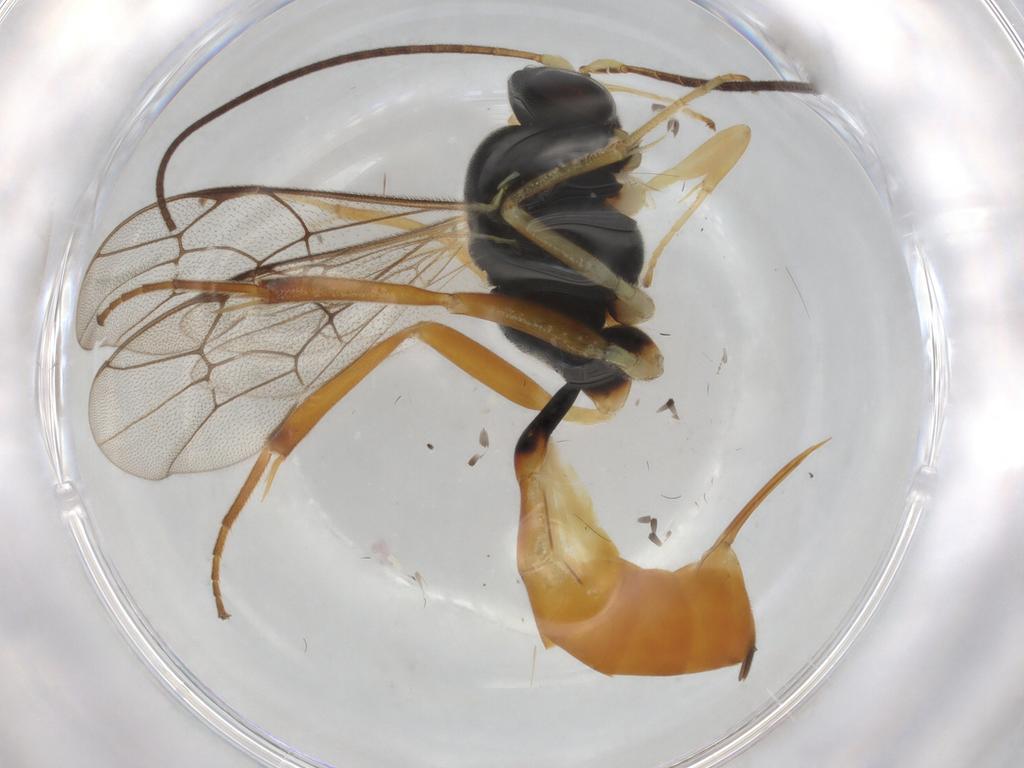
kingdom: Animalia
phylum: Arthropoda
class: Insecta
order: Hymenoptera
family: Ichneumonidae
